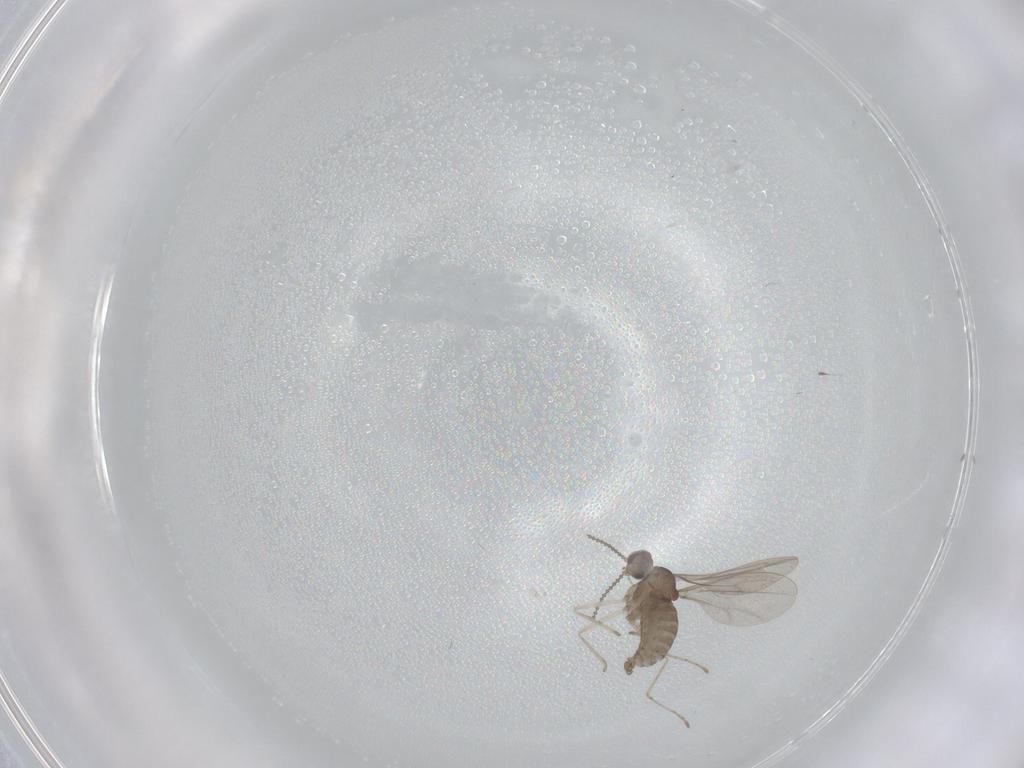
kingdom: Animalia
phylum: Arthropoda
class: Insecta
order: Diptera
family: Cecidomyiidae
